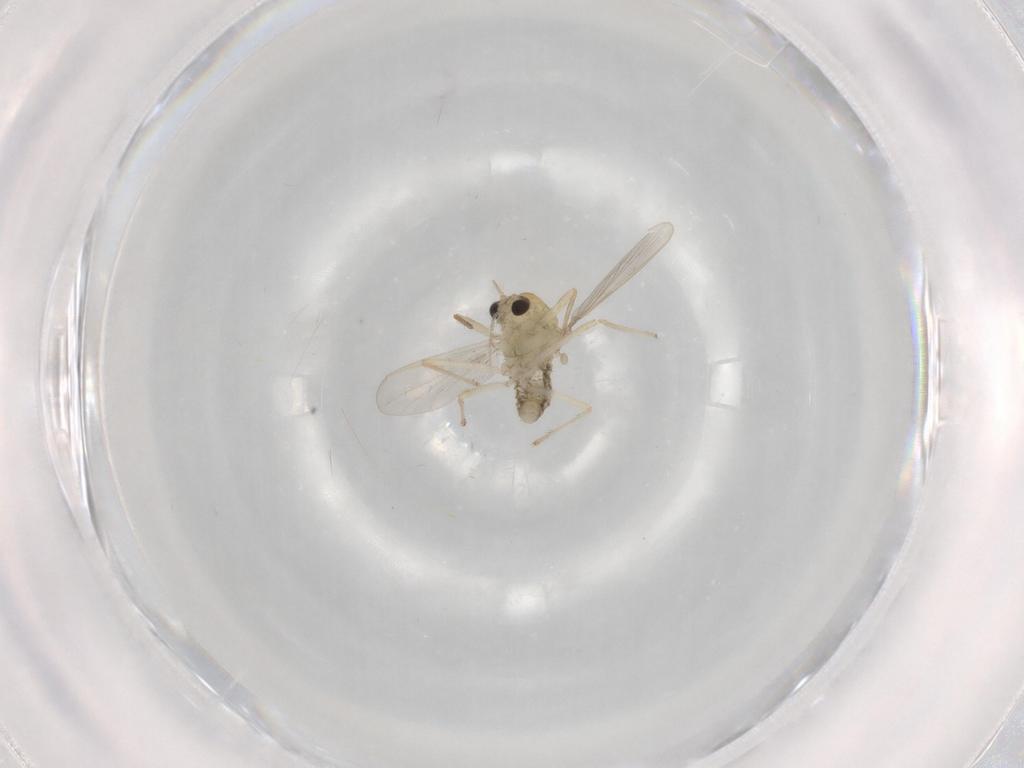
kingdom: Animalia
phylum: Arthropoda
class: Insecta
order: Diptera
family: Chironomidae
